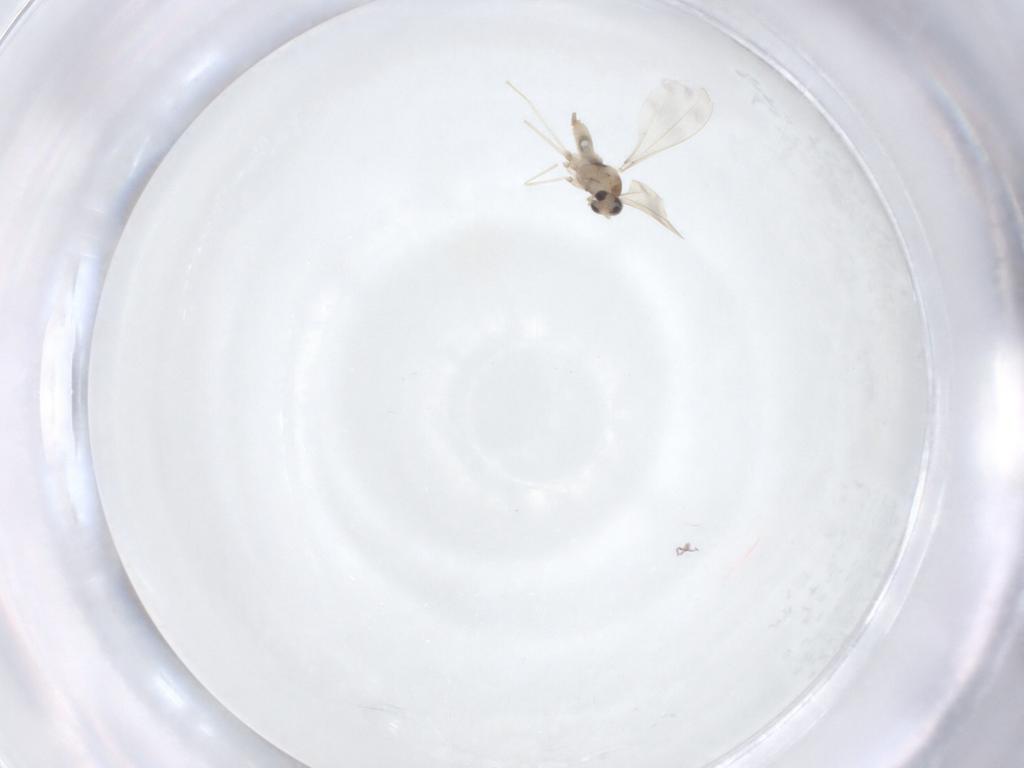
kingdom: Animalia
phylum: Arthropoda
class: Insecta
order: Diptera
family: Cecidomyiidae
